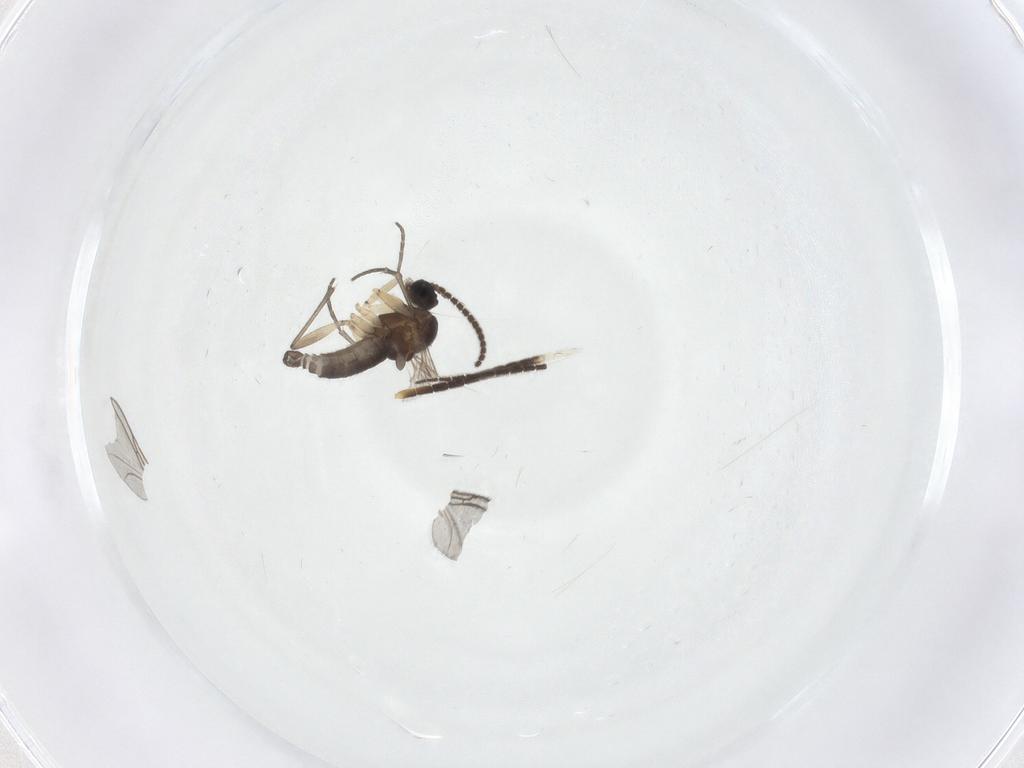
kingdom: Animalia
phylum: Arthropoda
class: Insecta
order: Diptera
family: Sciaridae
